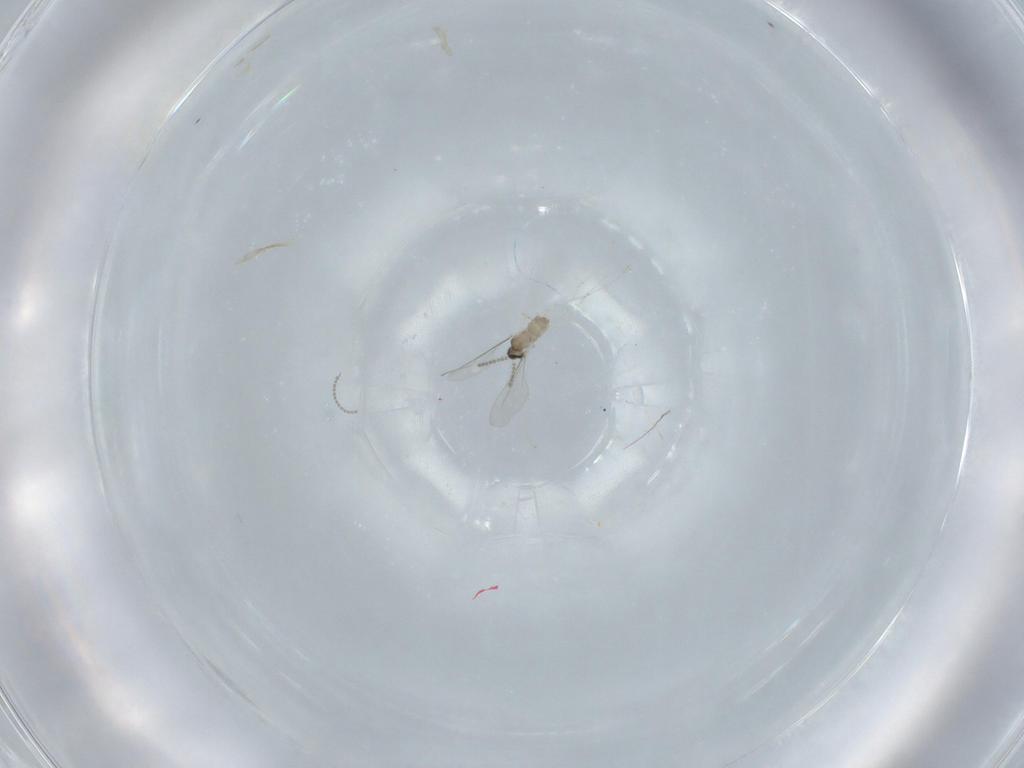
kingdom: Animalia
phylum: Arthropoda
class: Insecta
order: Diptera
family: Cecidomyiidae
